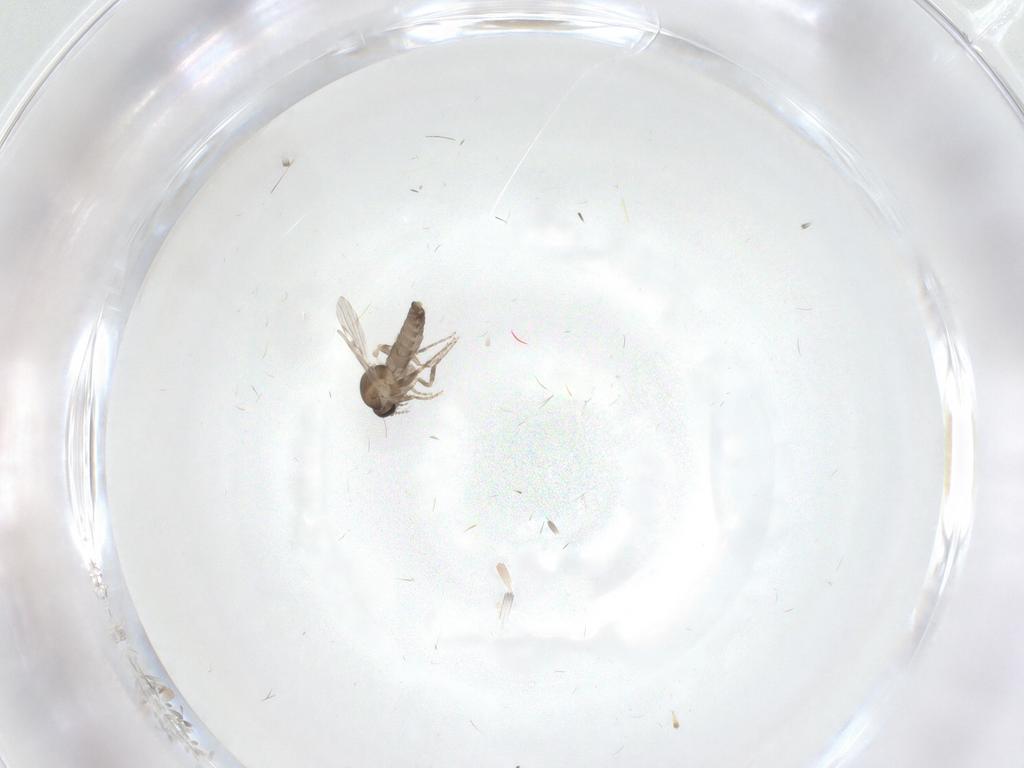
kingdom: Animalia
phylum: Arthropoda
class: Insecta
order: Diptera
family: Ceratopogonidae
